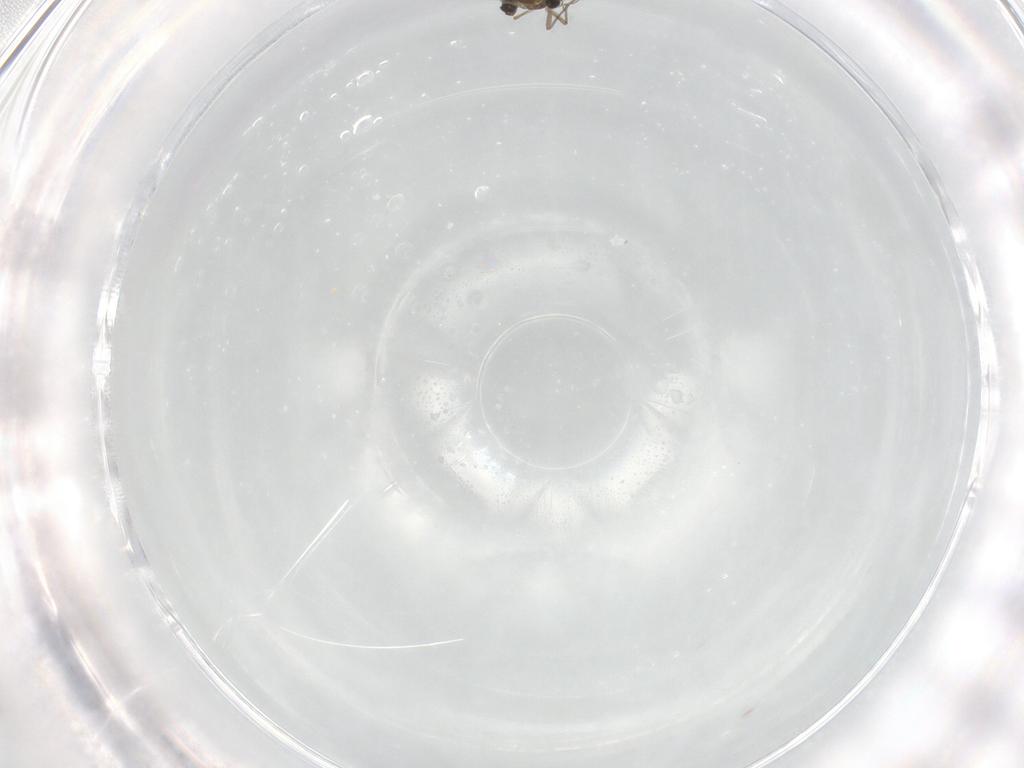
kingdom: Animalia
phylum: Arthropoda
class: Insecta
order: Diptera
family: Chironomidae
